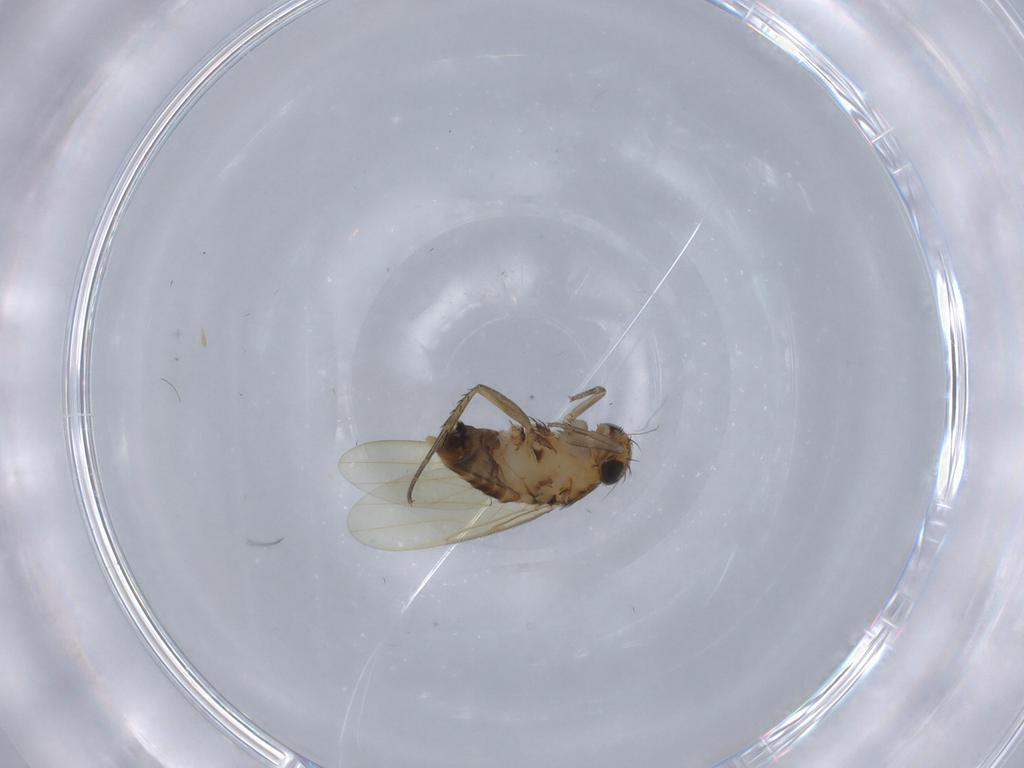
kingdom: Animalia
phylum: Arthropoda
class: Insecta
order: Diptera
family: Phoridae
